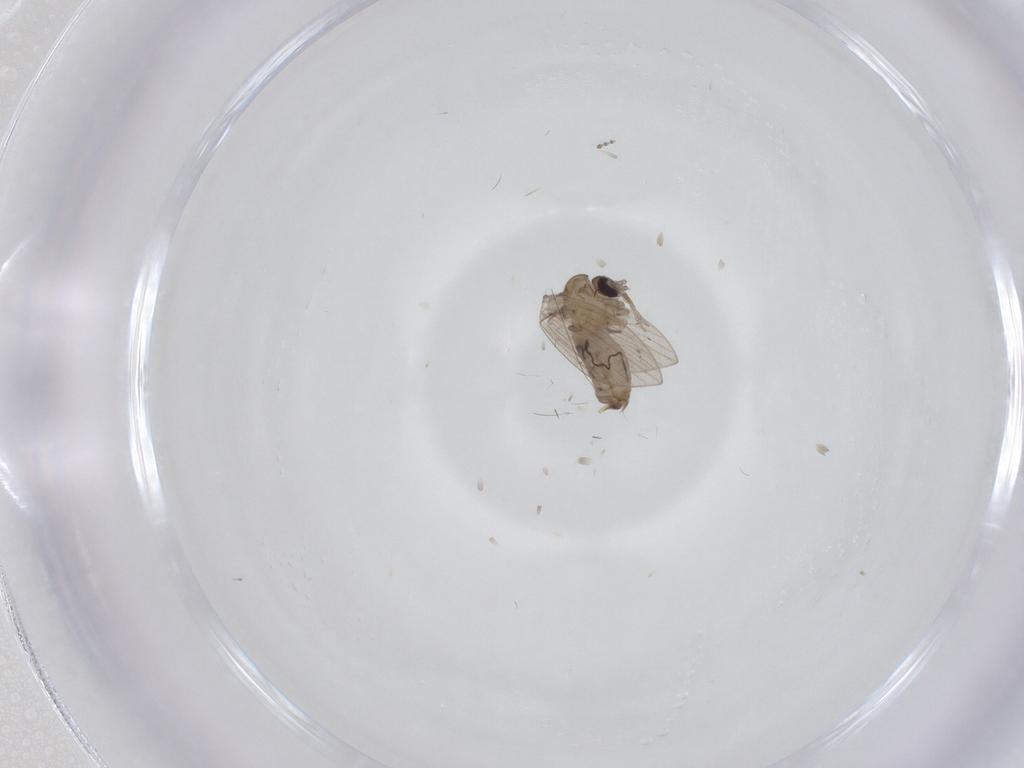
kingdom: Animalia
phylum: Arthropoda
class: Insecta
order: Diptera
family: Psychodidae
